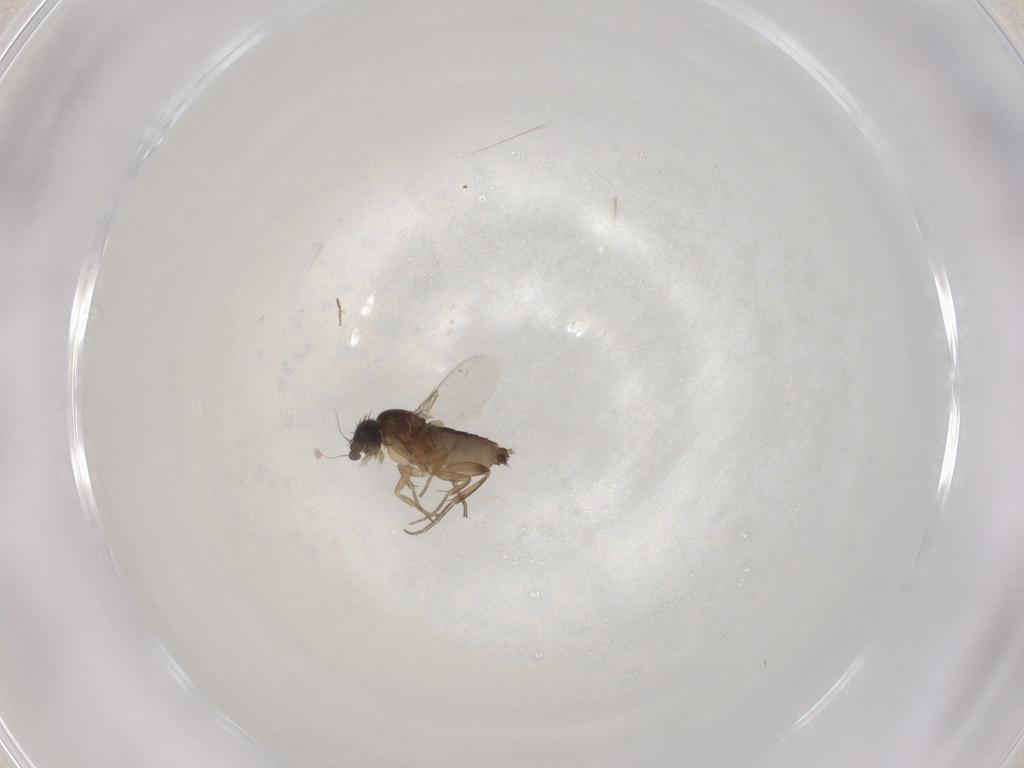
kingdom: Animalia
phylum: Arthropoda
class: Insecta
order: Diptera
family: Phoridae
